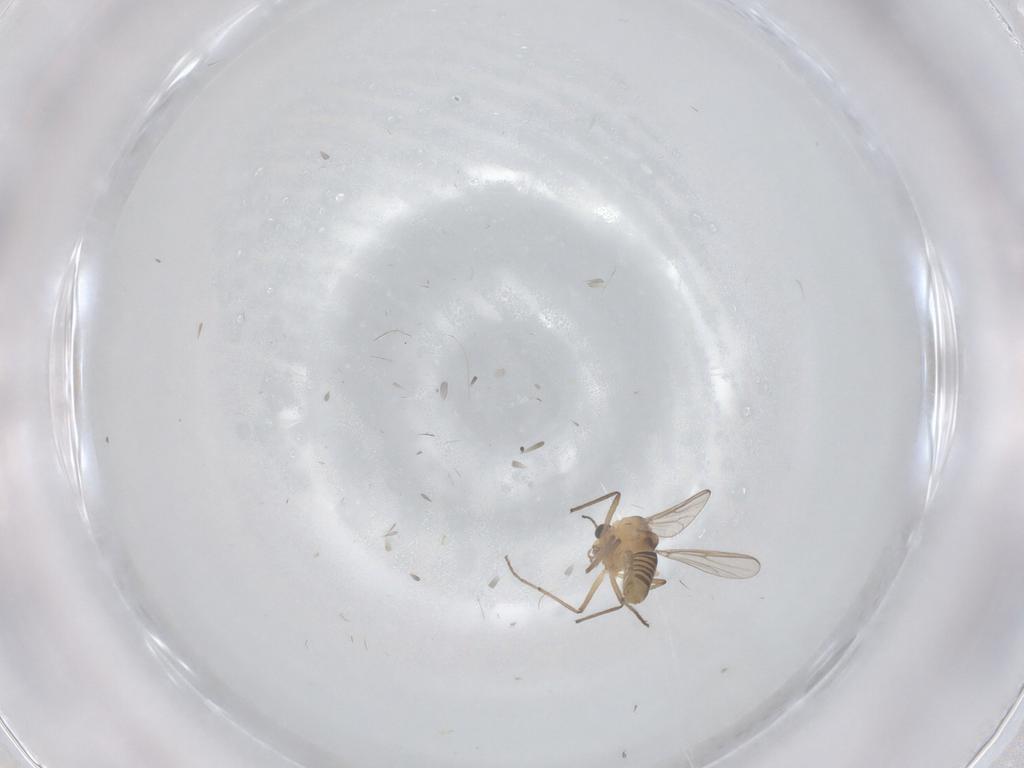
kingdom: Animalia
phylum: Arthropoda
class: Insecta
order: Diptera
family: Cecidomyiidae
